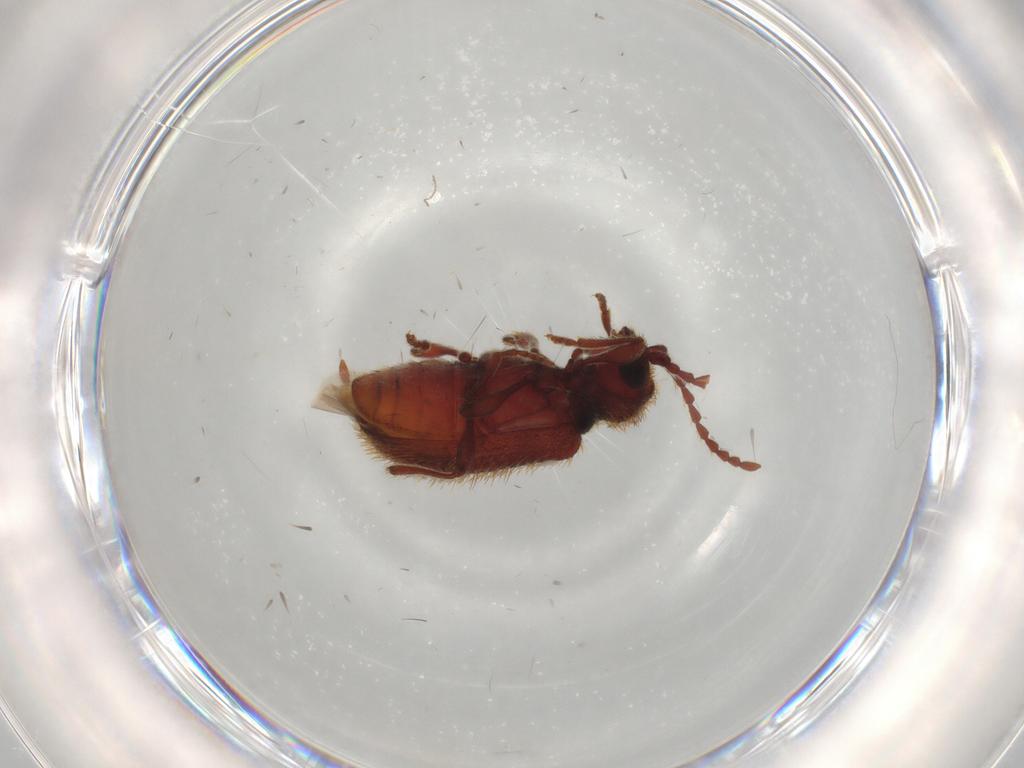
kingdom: Animalia
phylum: Arthropoda
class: Insecta
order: Coleoptera
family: Ptinidae
